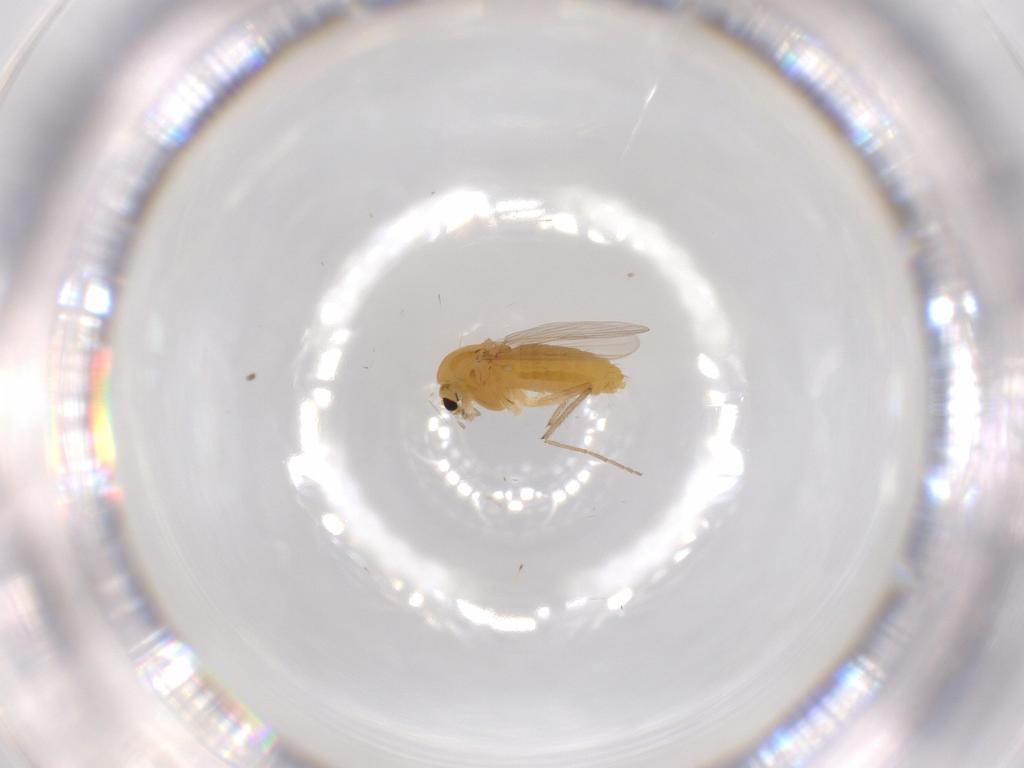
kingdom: Animalia
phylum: Arthropoda
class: Insecta
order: Diptera
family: Chironomidae
